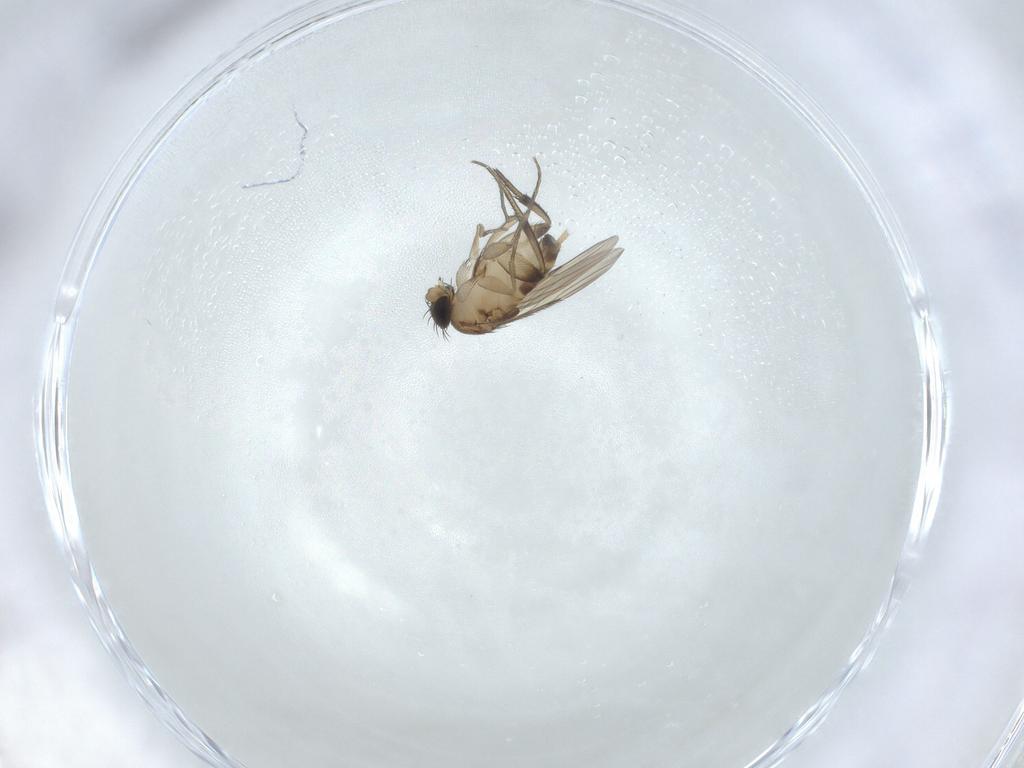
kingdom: Animalia
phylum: Arthropoda
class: Insecta
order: Diptera
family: Phoridae
